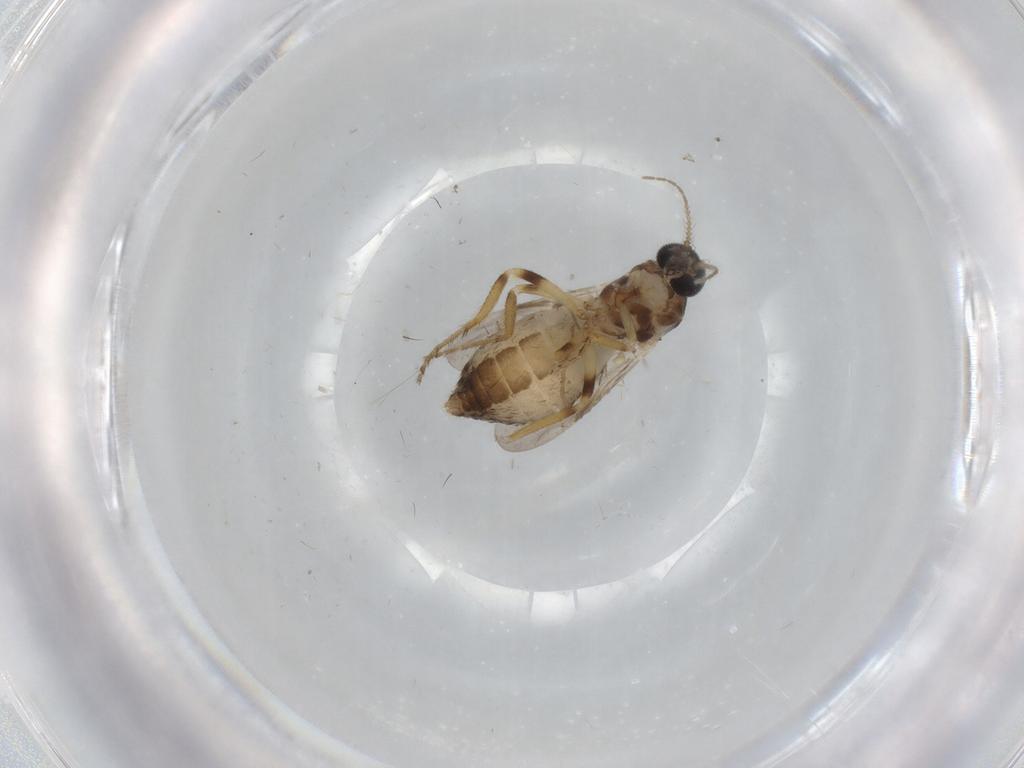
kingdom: Animalia
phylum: Arthropoda
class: Insecta
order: Diptera
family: Ceratopogonidae
